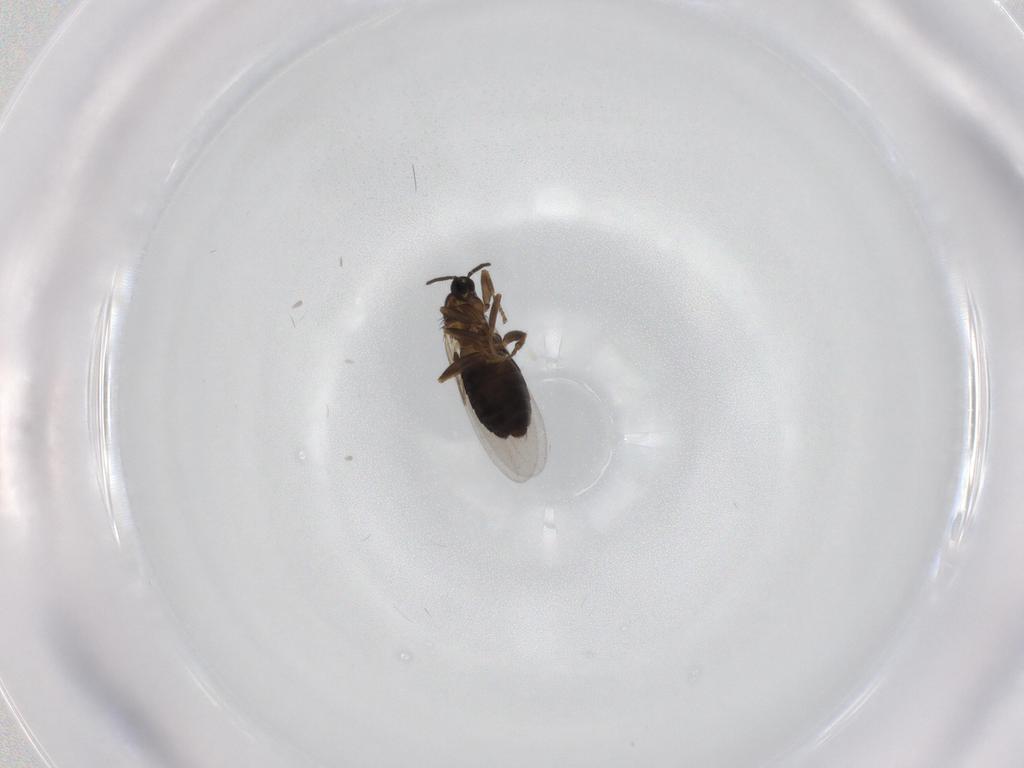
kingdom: Animalia
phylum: Arthropoda
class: Insecta
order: Diptera
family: Scatopsidae
